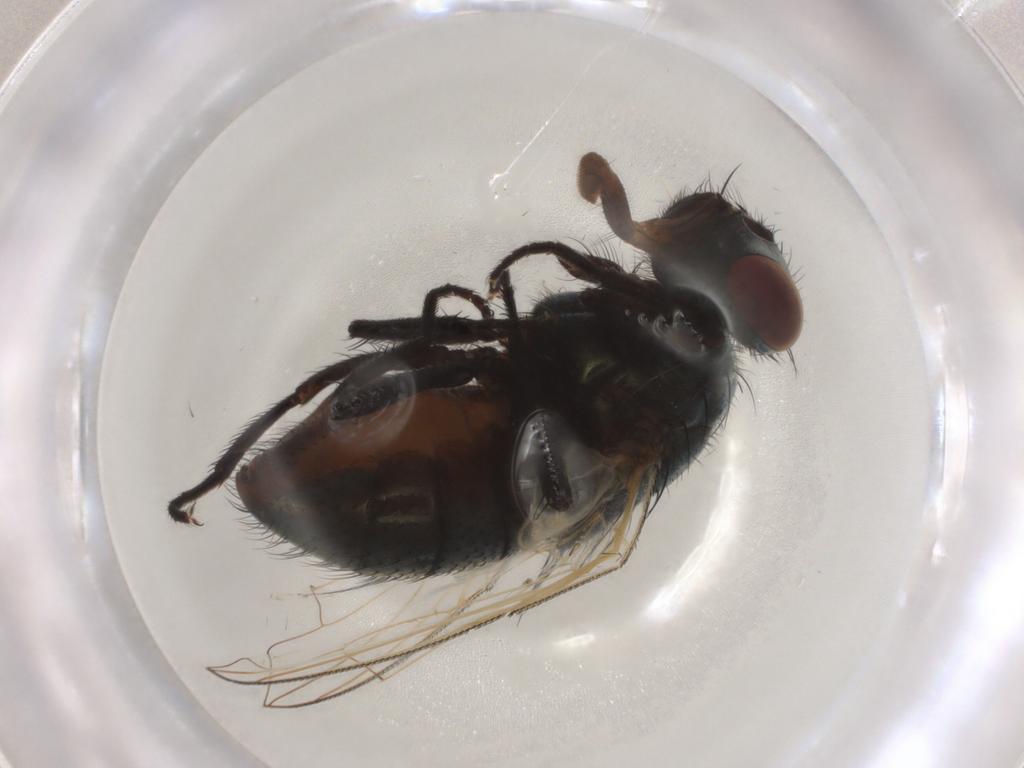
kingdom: Animalia
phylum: Arthropoda
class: Insecta
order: Diptera
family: Muscidae
